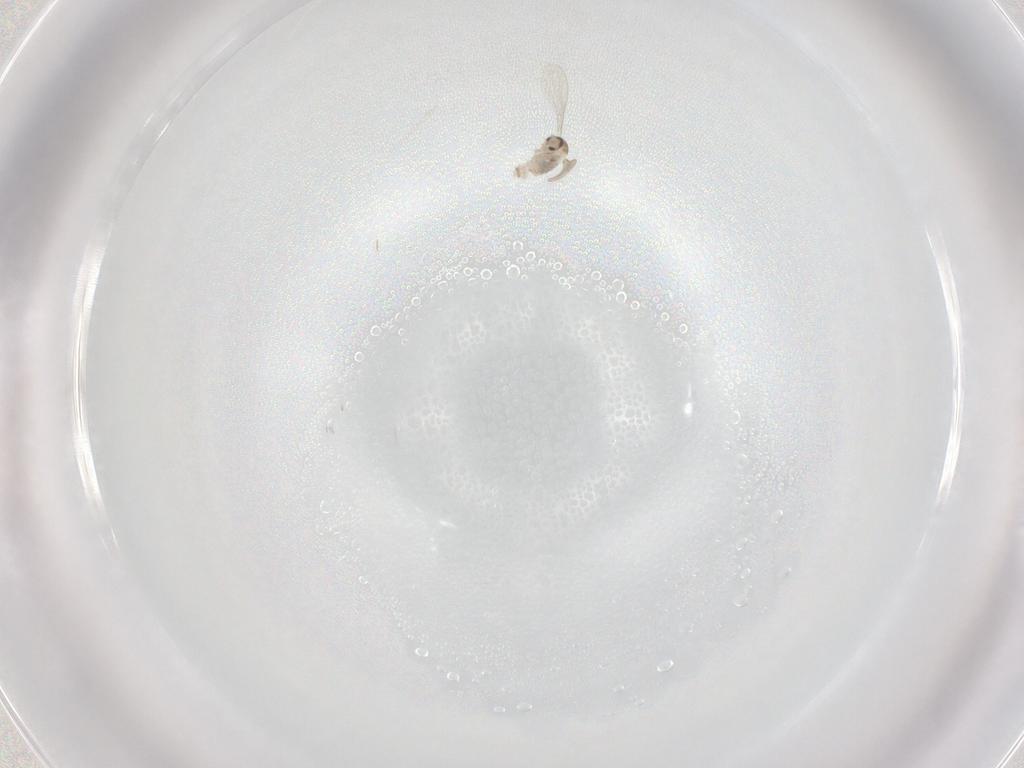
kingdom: Animalia
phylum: Arthropoda
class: Insecta
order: Diptera
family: Cecidomyiidae
